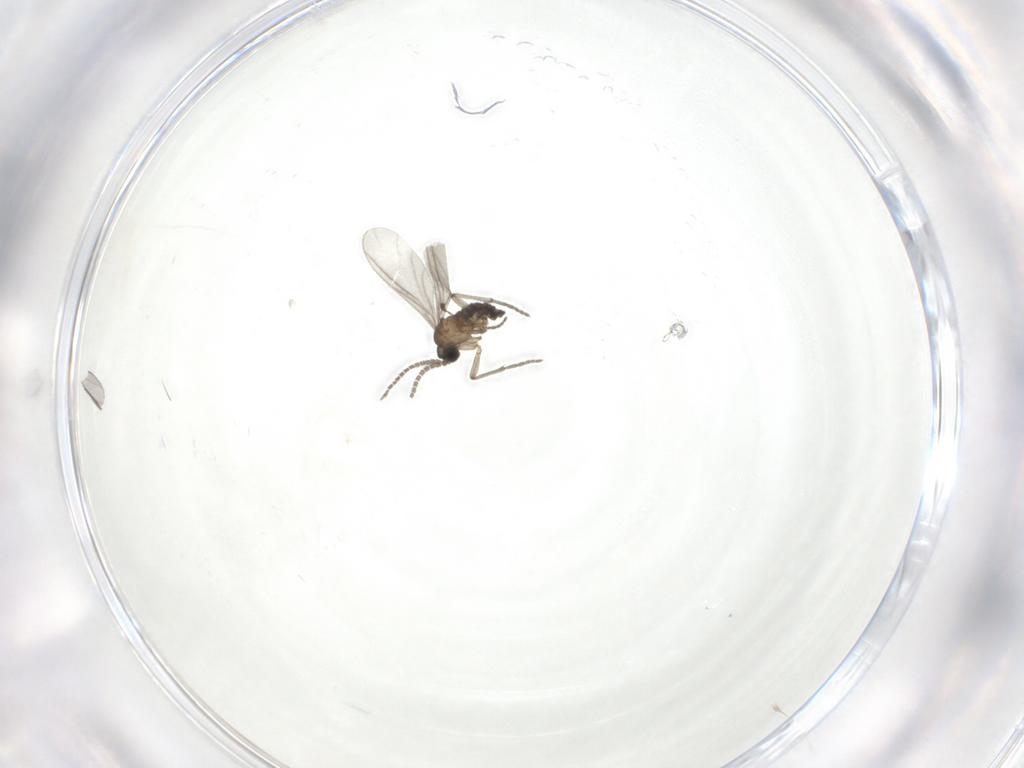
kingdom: Animalia
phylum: Arthropoda
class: Insecta
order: Diptera
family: Sciaridae
